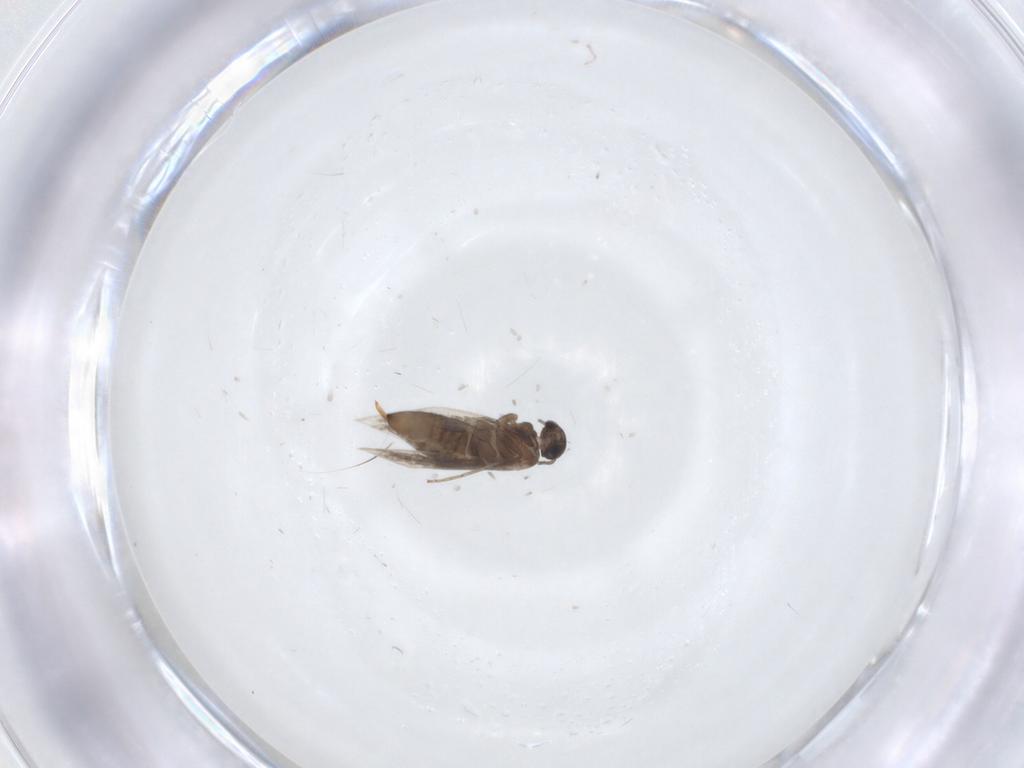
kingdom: Animalia
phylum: Arthropoda
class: Insecta
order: Lepidoptera
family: Heliozelidae
